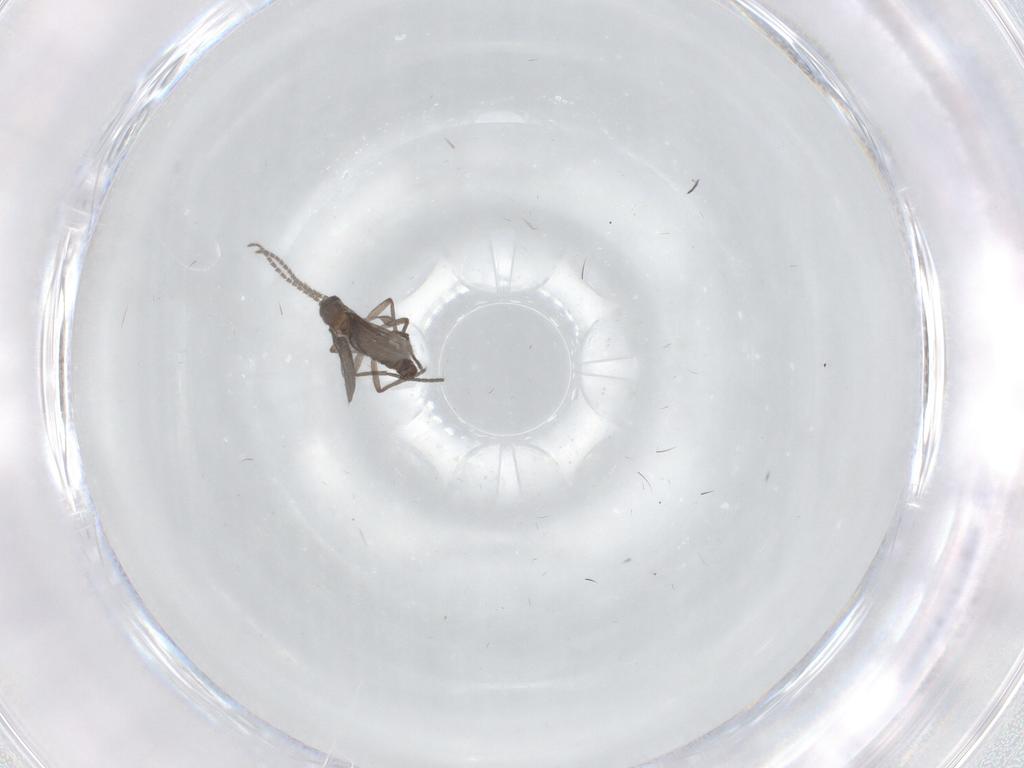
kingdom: Animalia
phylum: Arthropoda
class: Insecta
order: Diptera
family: Sciaridae
